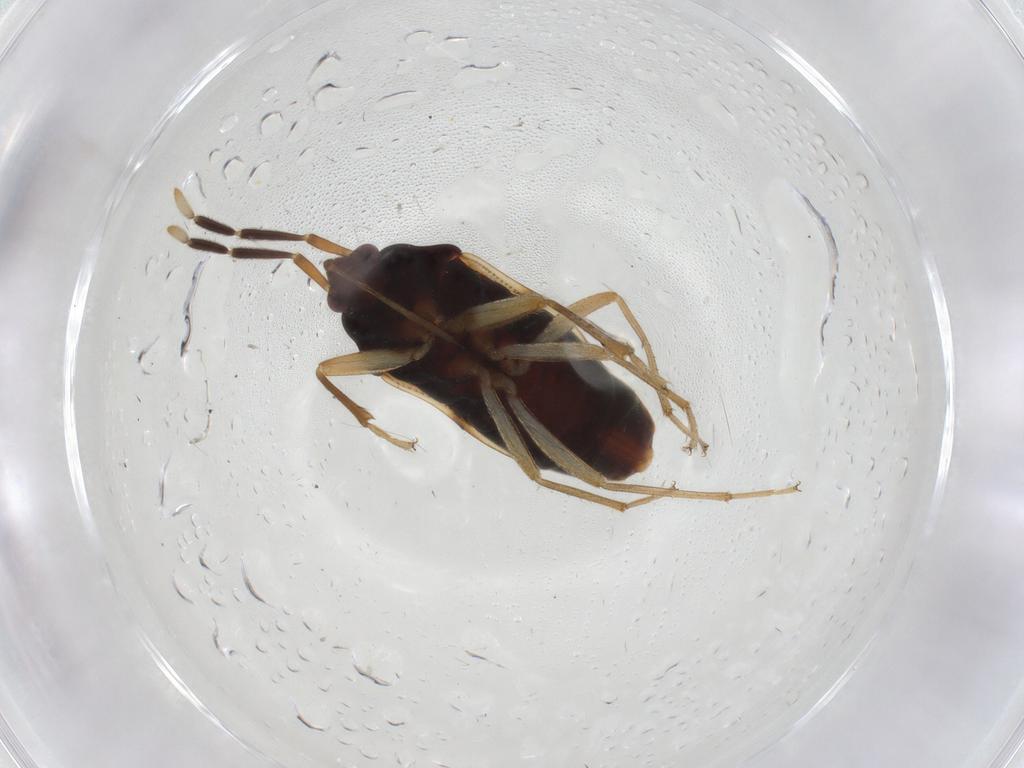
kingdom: Animalia
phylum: Arthropoda
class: Insecta
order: Hemiptera
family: Rhyparochromidae
